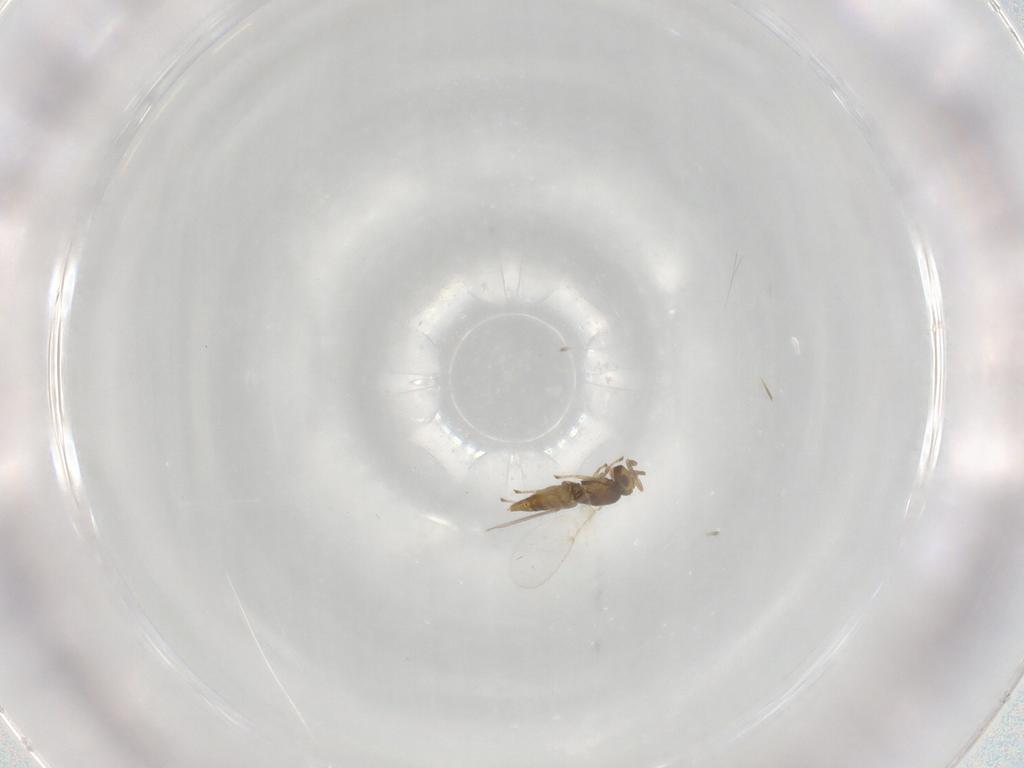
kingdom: Animalia
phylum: Arthropoda
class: Insecta
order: Hymenoptera
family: Encyrtidae
